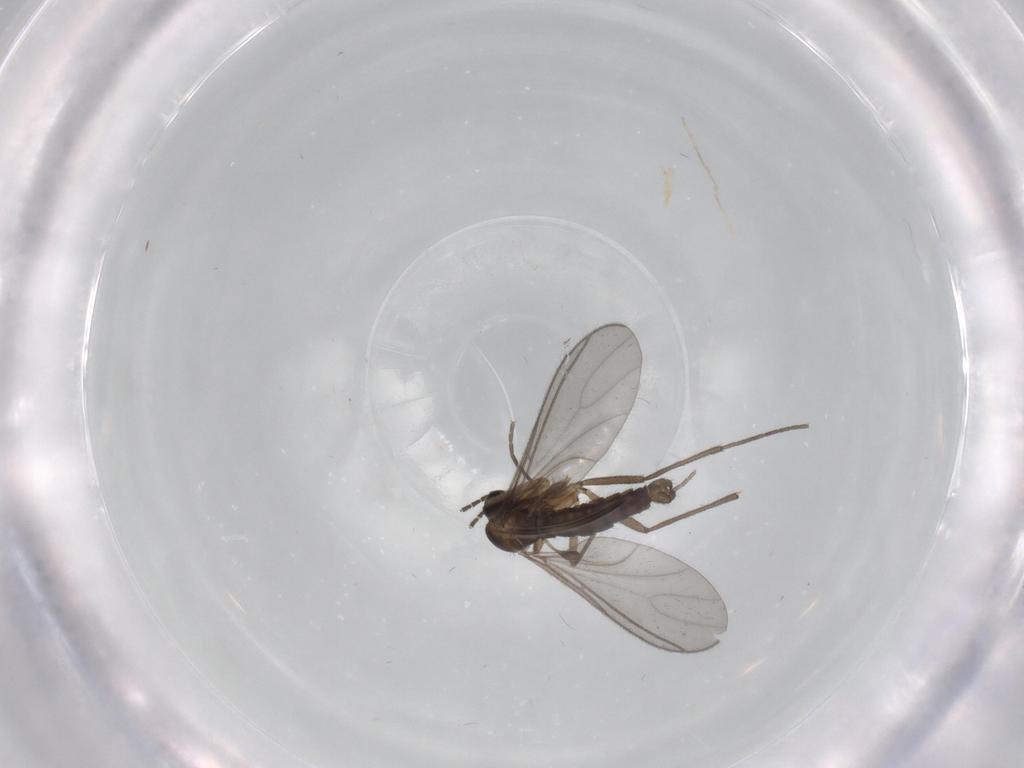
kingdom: Animalia
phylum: Arthropoda
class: Insecta
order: Diptera
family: Sciaridae
